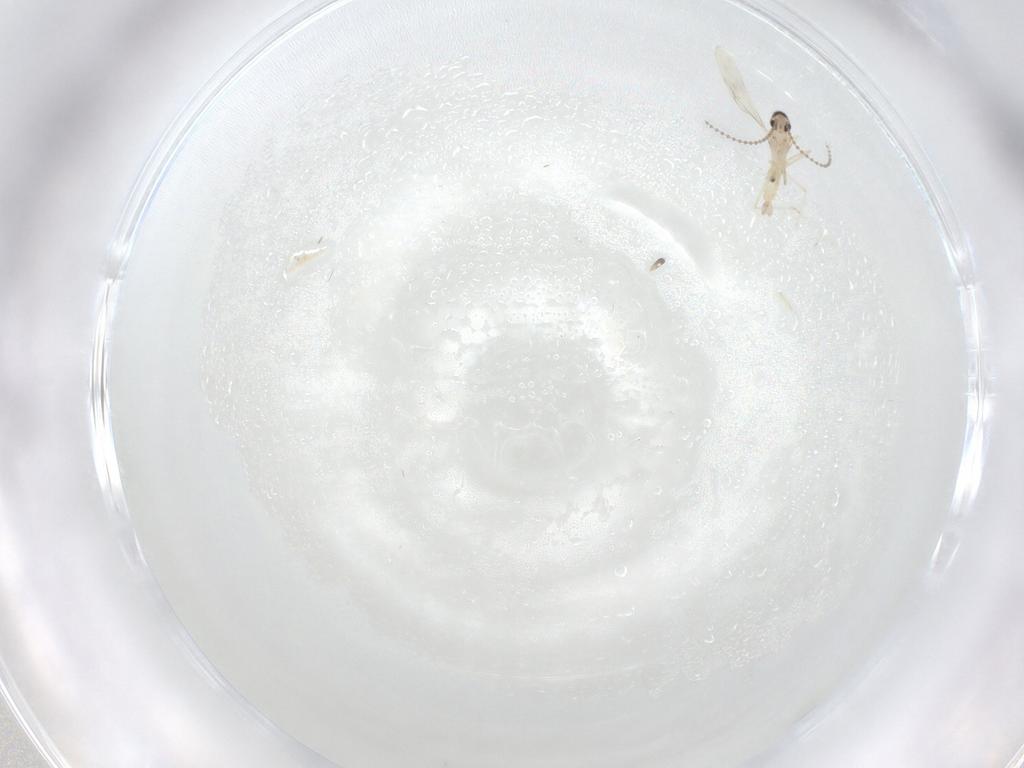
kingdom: Animalia
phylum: Arthropoda
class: Insecta
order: Diptera
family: Cecidomyiidae
